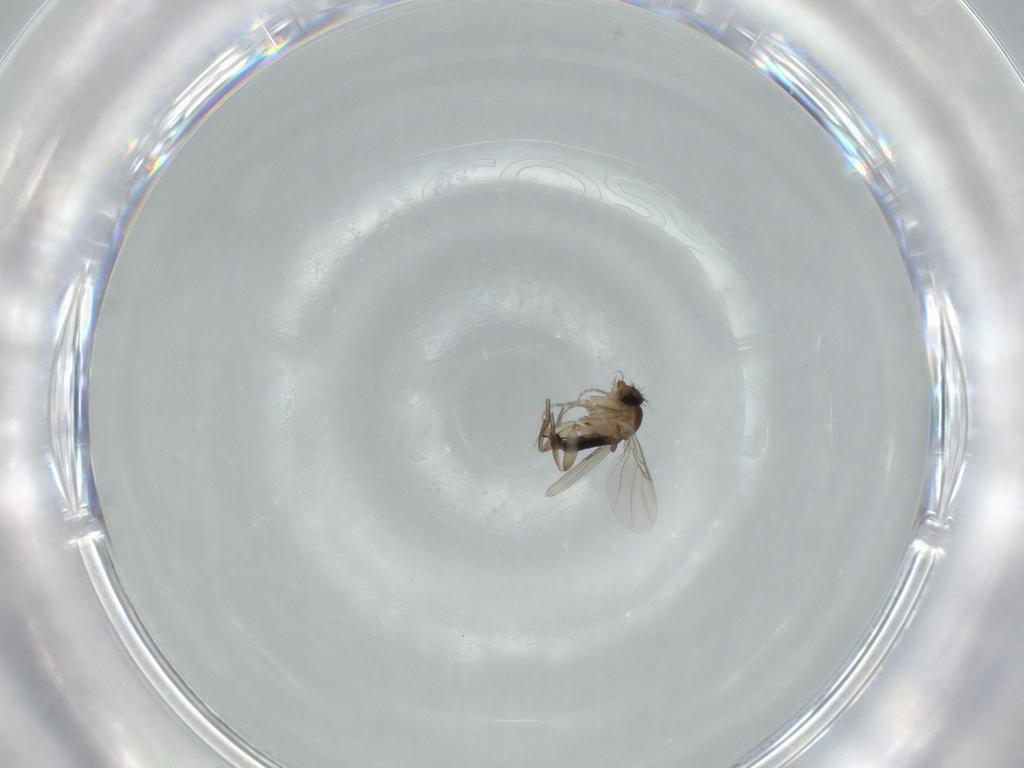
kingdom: Animalia
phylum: Arthropoda
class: Insecta
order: Diptera
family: Phoridae
